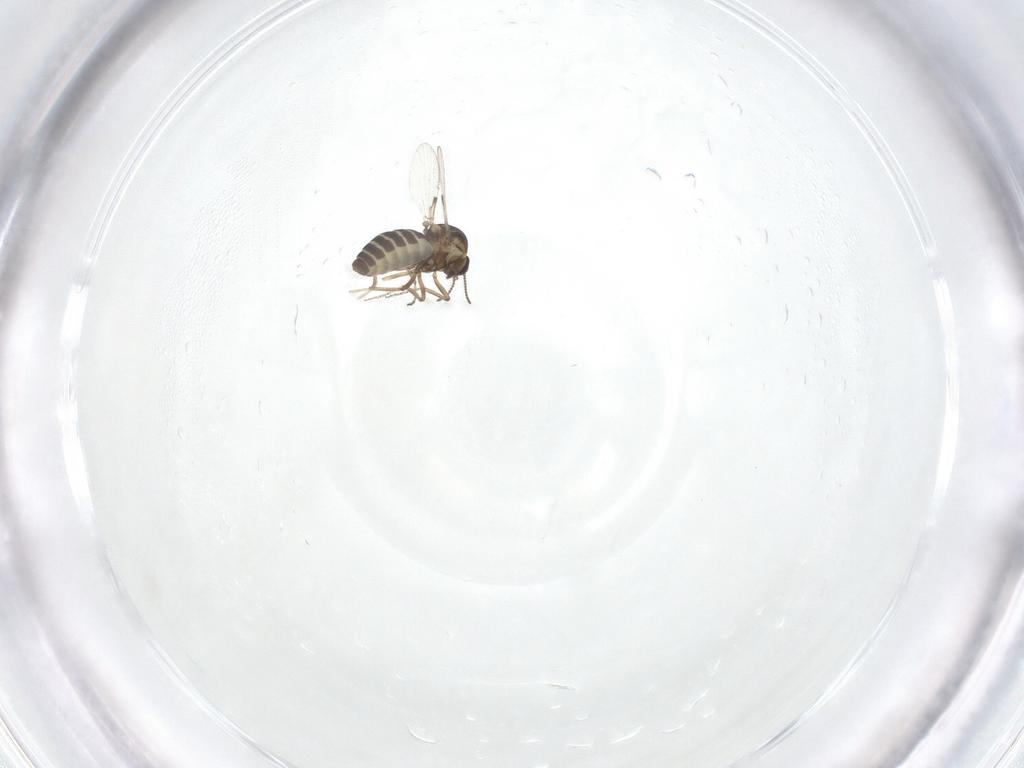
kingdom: Animalia
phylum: Arthropoda
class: Insecta
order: Diptera
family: Ceratopogonidae
